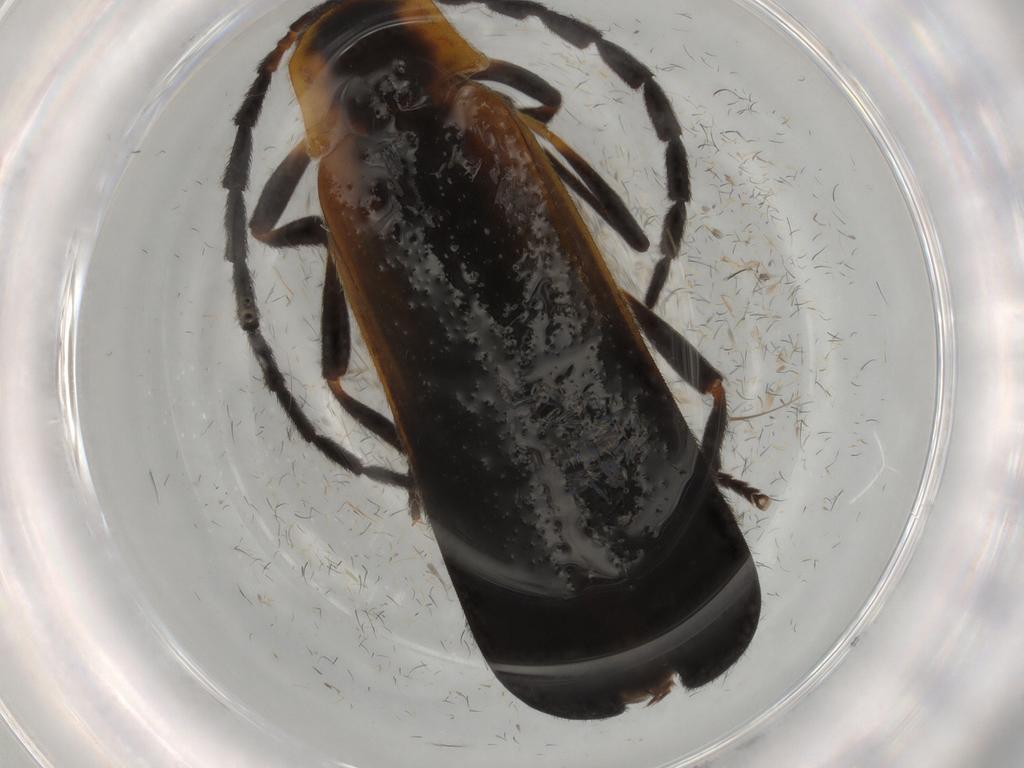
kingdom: Animalia
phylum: Arthropoda
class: Insecta
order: Coleoptera
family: Lycidae
